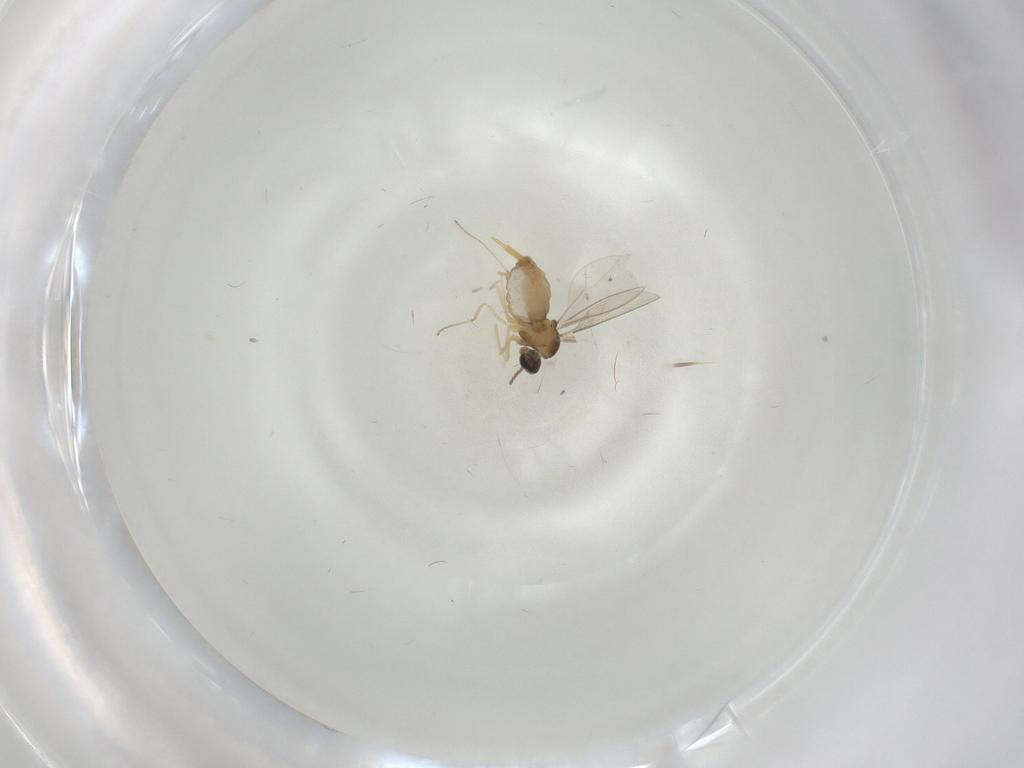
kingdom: Animalia
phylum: Arthropoda
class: Insecta
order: Diptera
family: Cecidomyiidae
